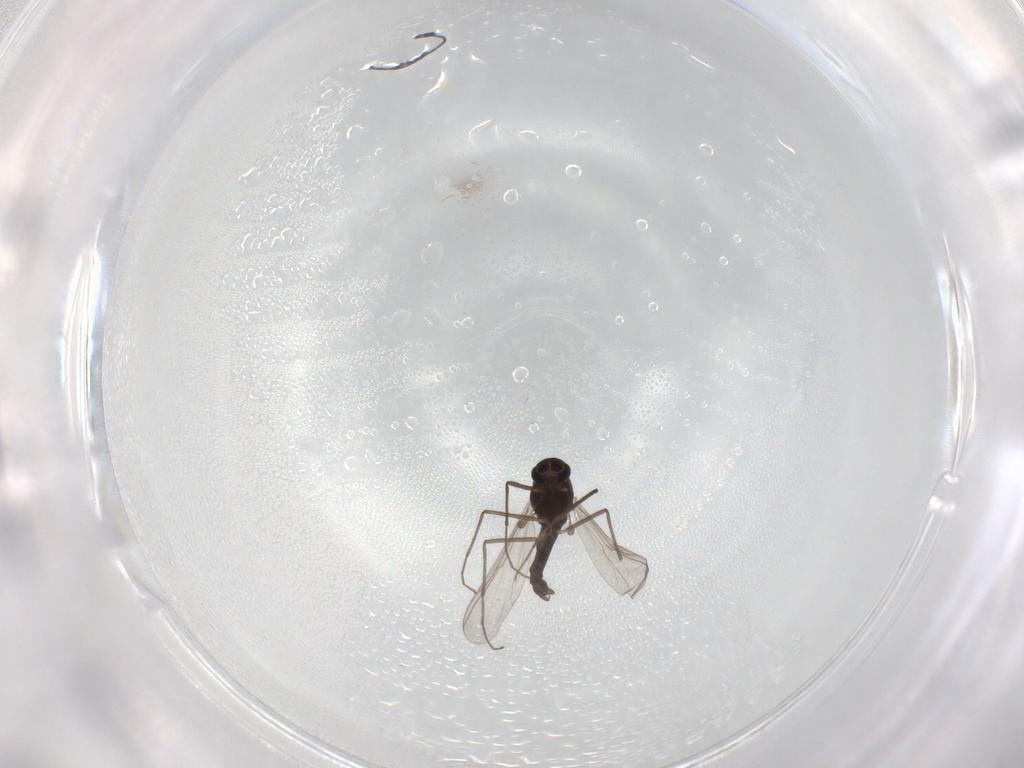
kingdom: Animalia
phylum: Arthropoda
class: Insecta
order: Diptera
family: Chironomidae
